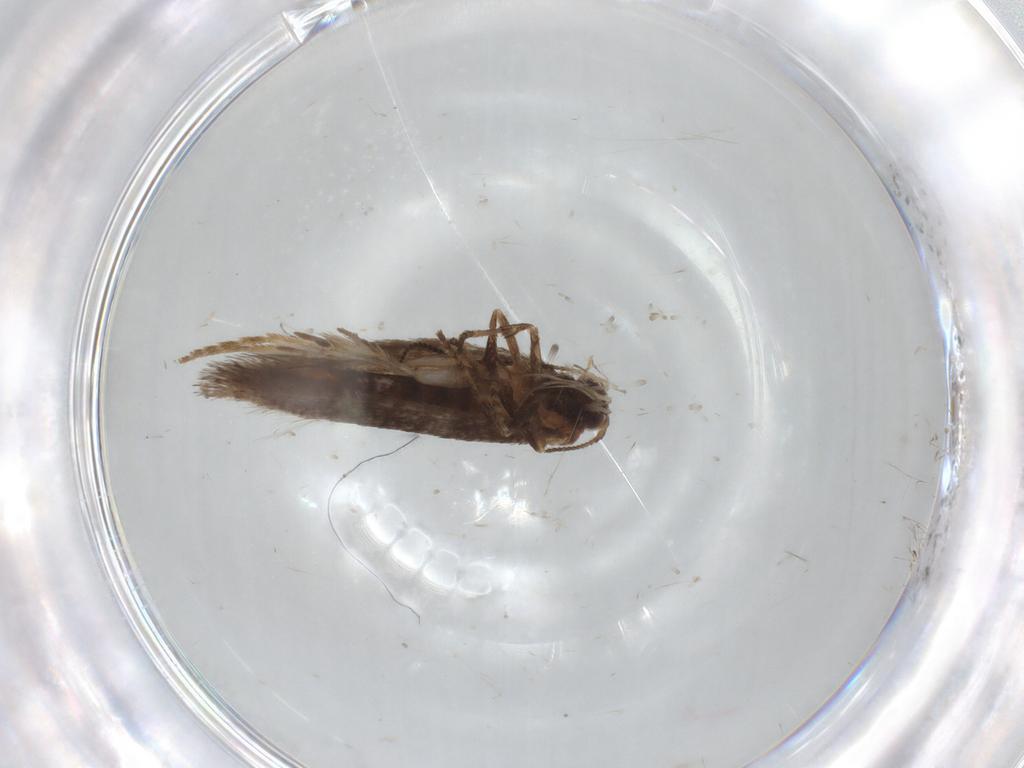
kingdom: Animalia
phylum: Arthropoda
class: Insecta
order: Lepidoptera
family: Nepticulidae
